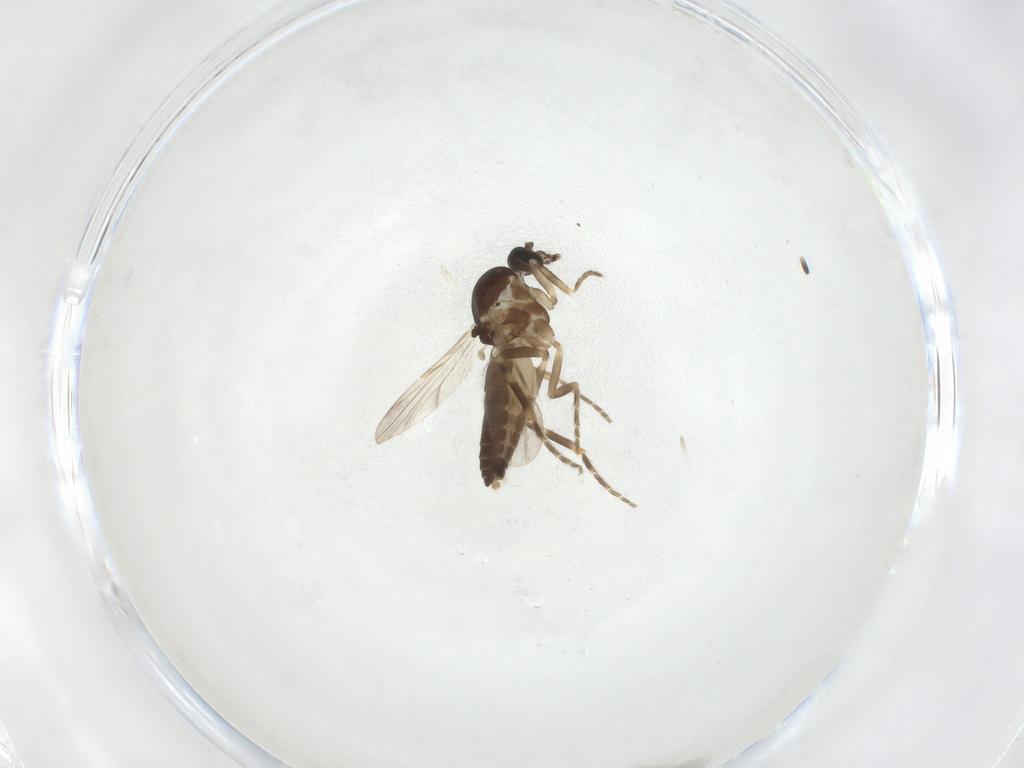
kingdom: Animalia
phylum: Arthropoda
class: Insecta
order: Diptera
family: Ceratopogonidae
